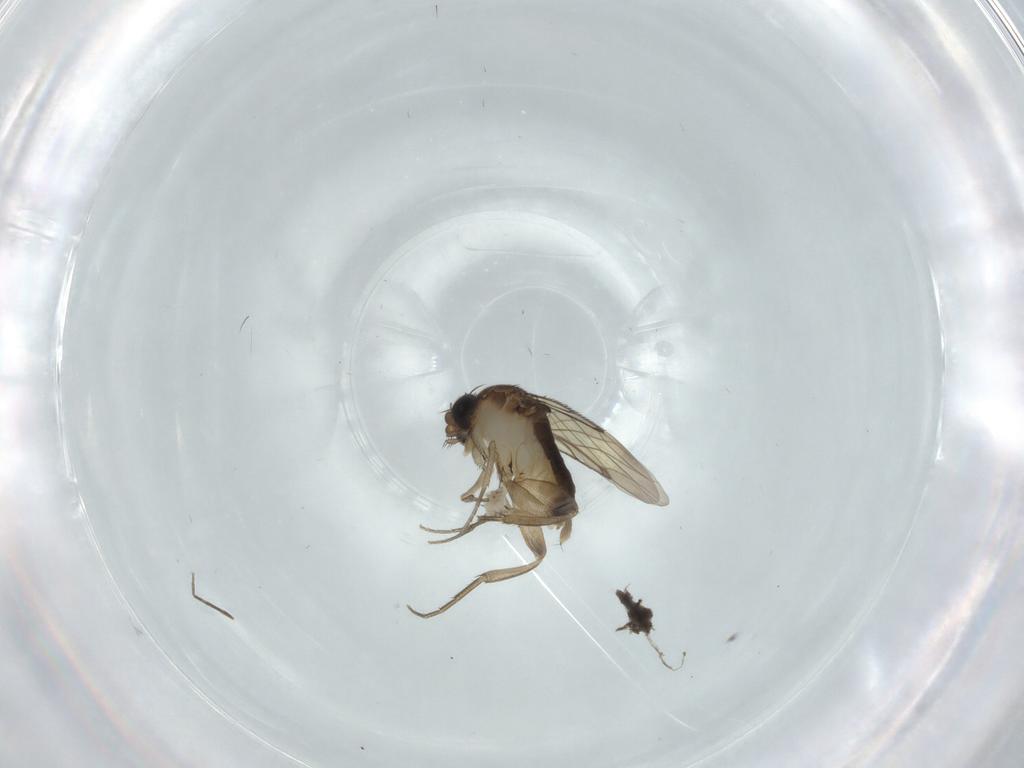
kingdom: Animalia
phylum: Arthropoda
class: Insecta
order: Diptera
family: Phoridae
